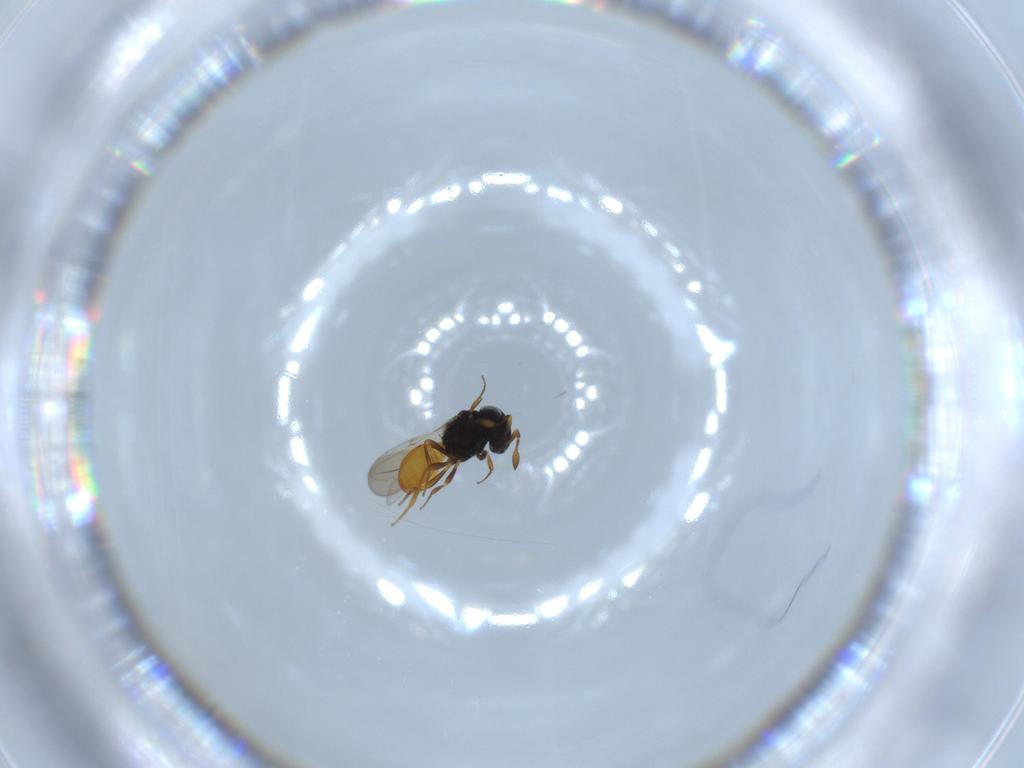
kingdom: Animalia
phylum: Arthropoda
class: Insecta
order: Hymenoptera
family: Scelionidae
